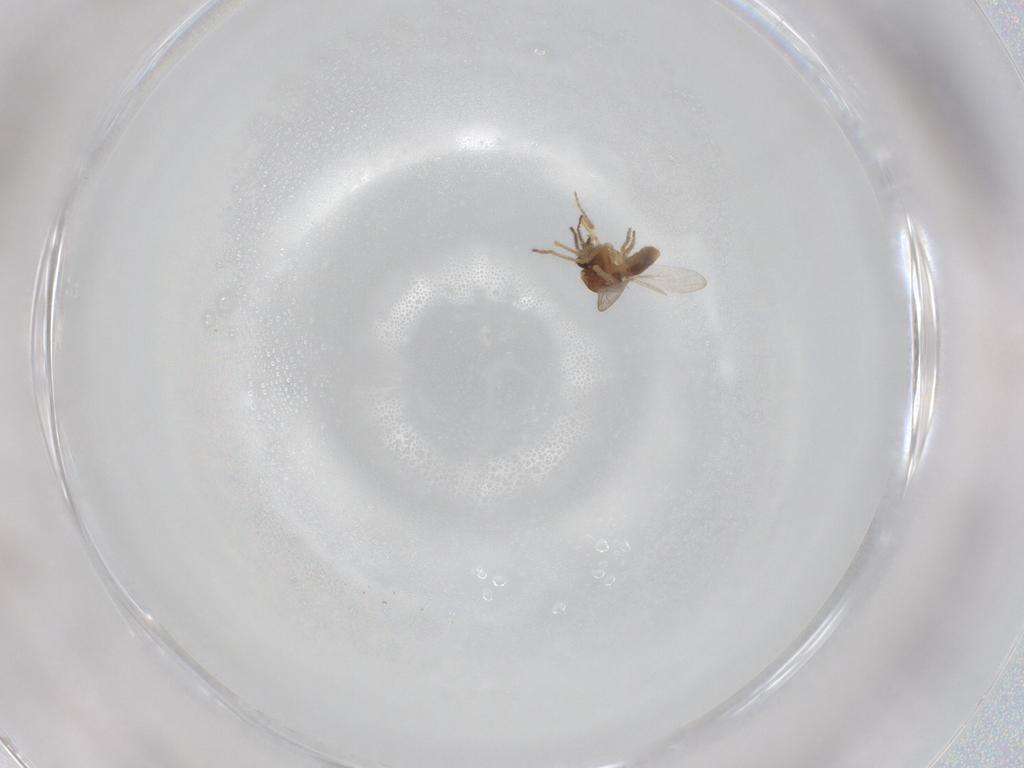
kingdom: Animalia
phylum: Arthropoda
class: Insecta
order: Diptera
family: Ceratopogonidae
